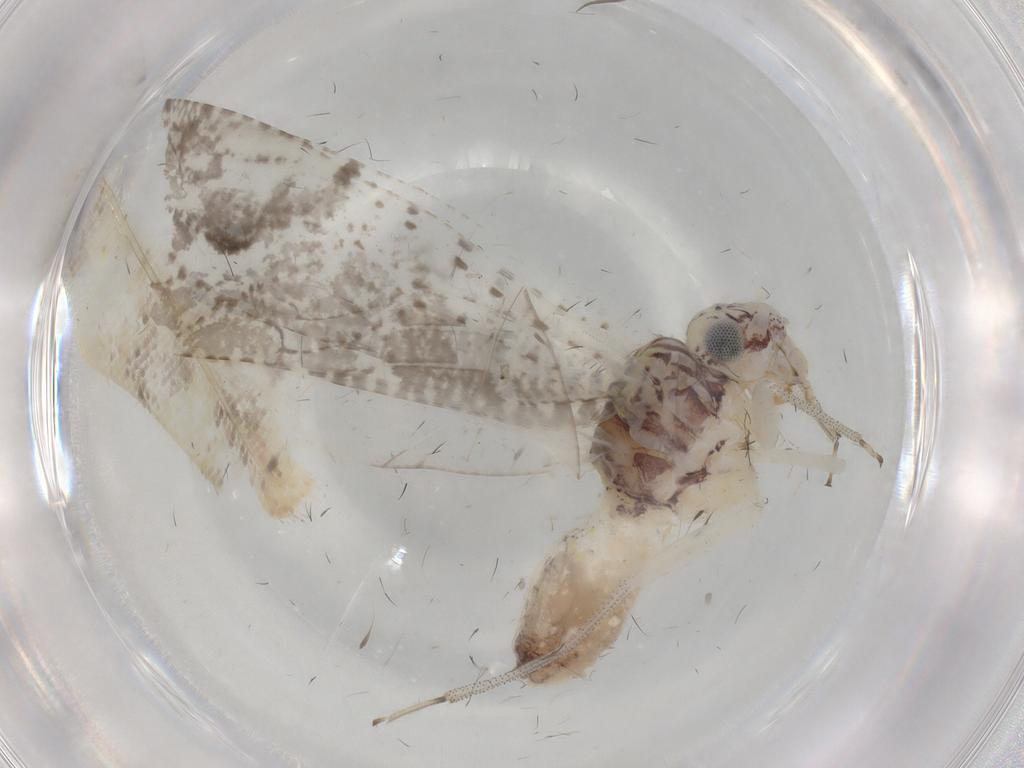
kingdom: Animalia
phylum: Arthropoda
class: Insecta
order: Psocodea
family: Myopsocidae
